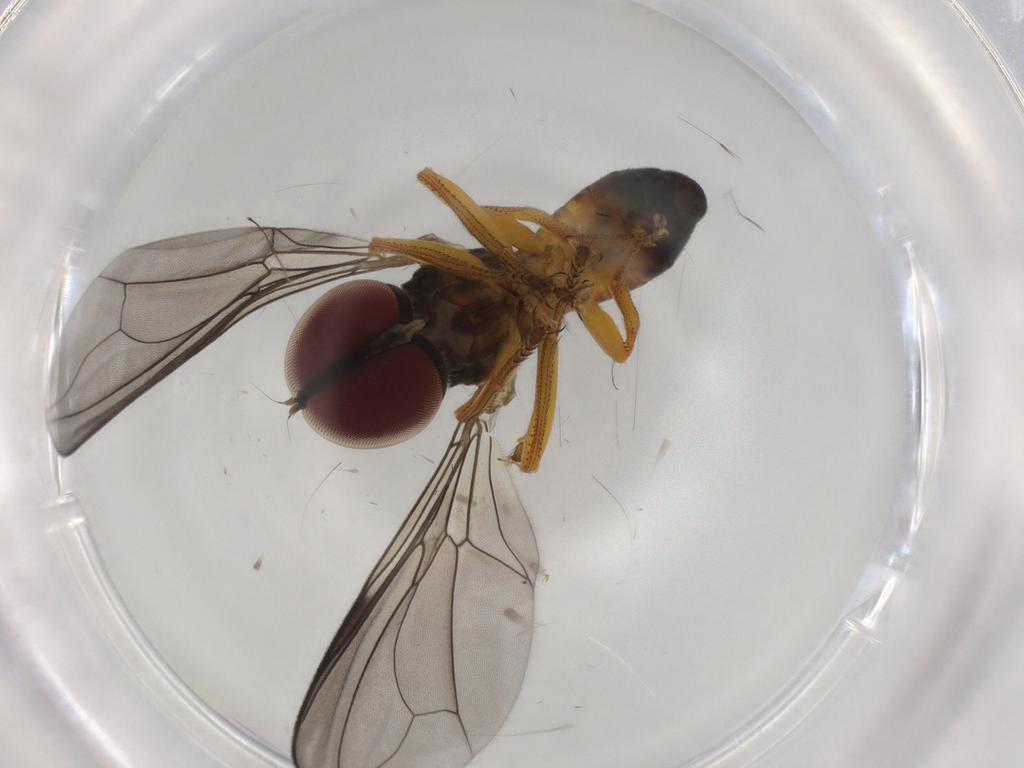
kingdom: Animalia
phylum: Arthropoda
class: Insecta
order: Diptera
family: Pipunculidae
